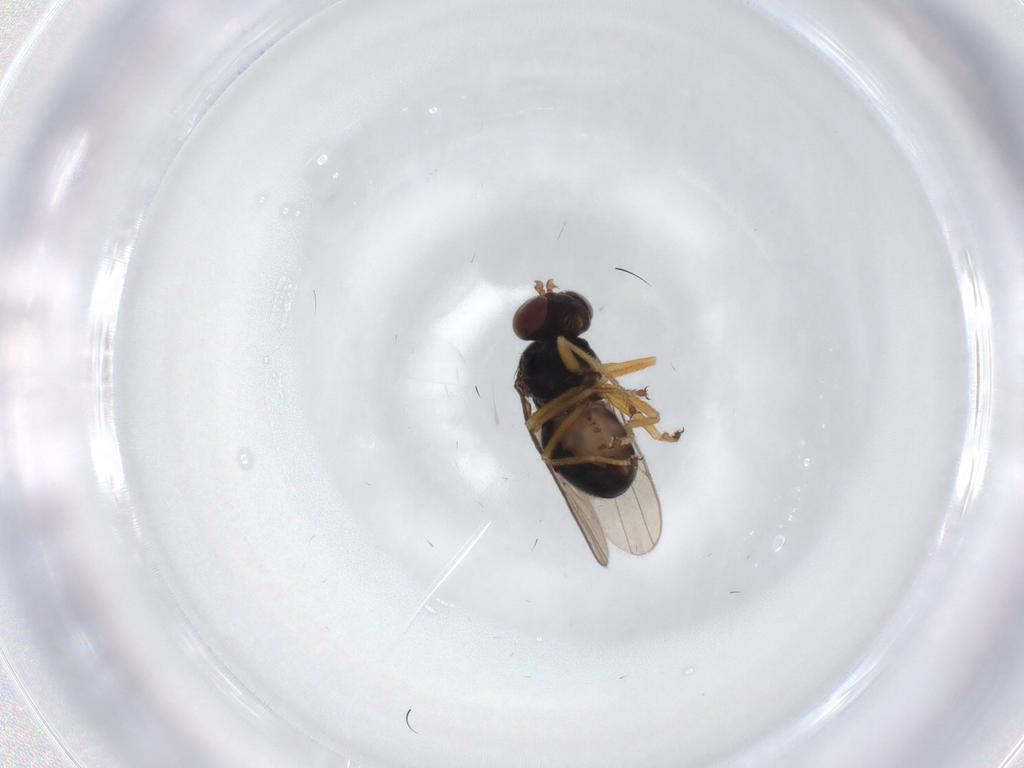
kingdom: Animalia
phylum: Arthropoda
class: Insecta
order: Diptera
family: Ephydridae
